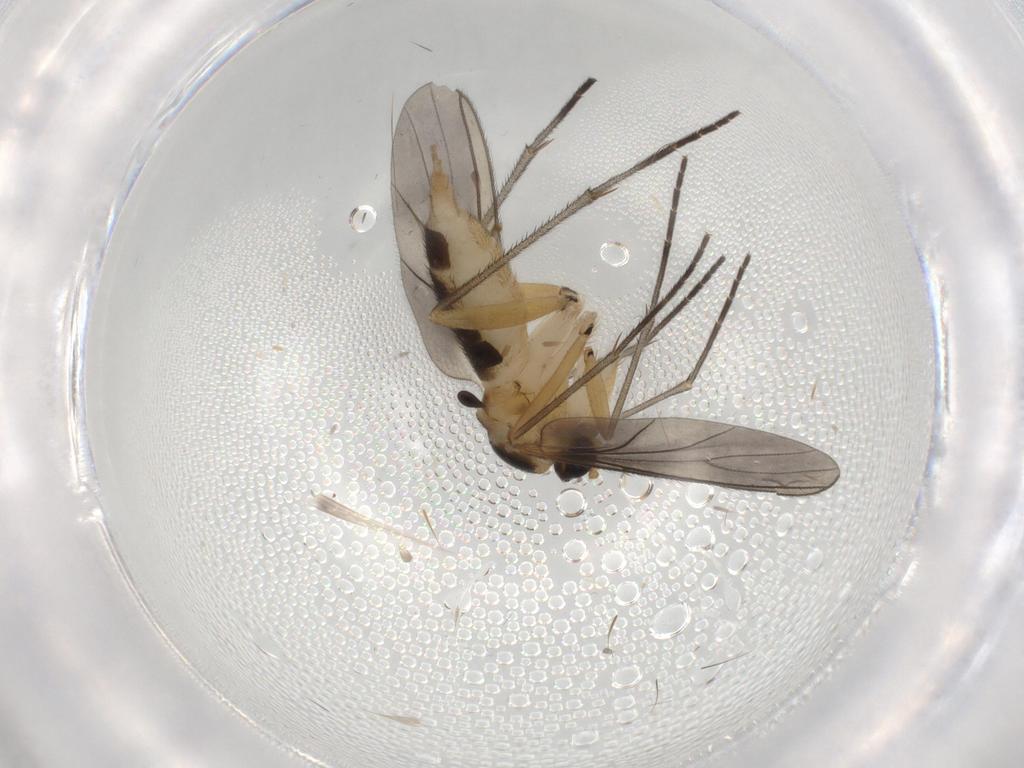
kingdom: Animalia
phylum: Arthropoda
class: Insecta
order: Diptera
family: Sciaridae
